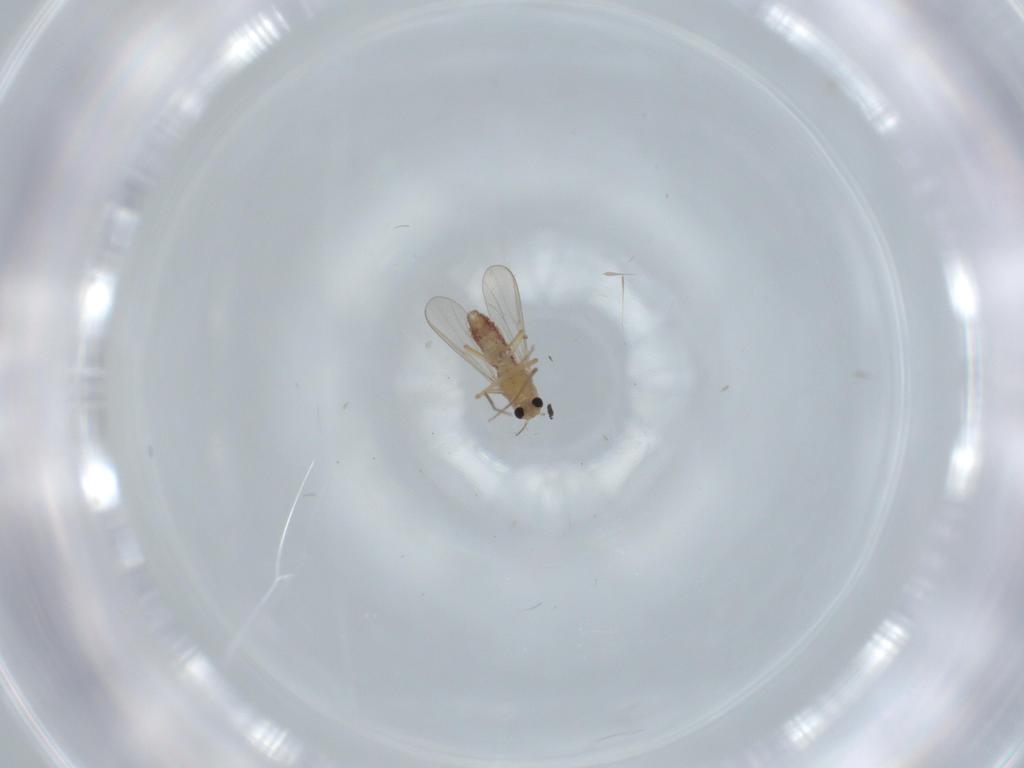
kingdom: Animalia
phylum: Arthropoda
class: Insecta
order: Diptera
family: Chironomidae
